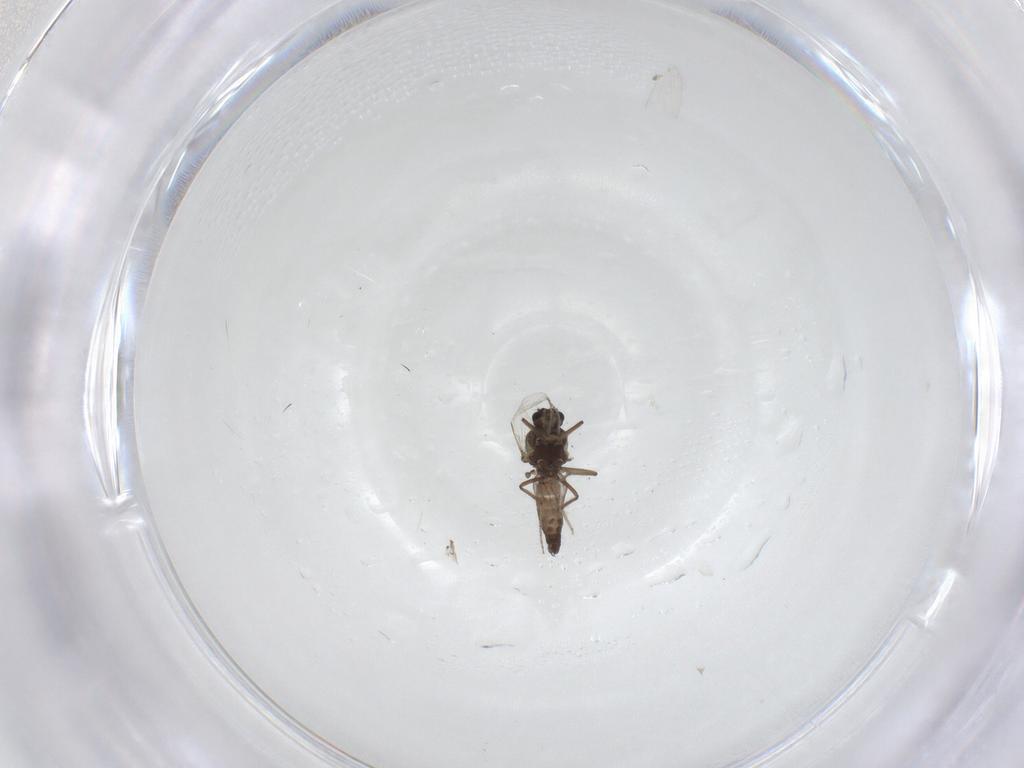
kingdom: Animalia
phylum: Arthropoda
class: Insecta
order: Diptera
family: Ceratopogonidae
